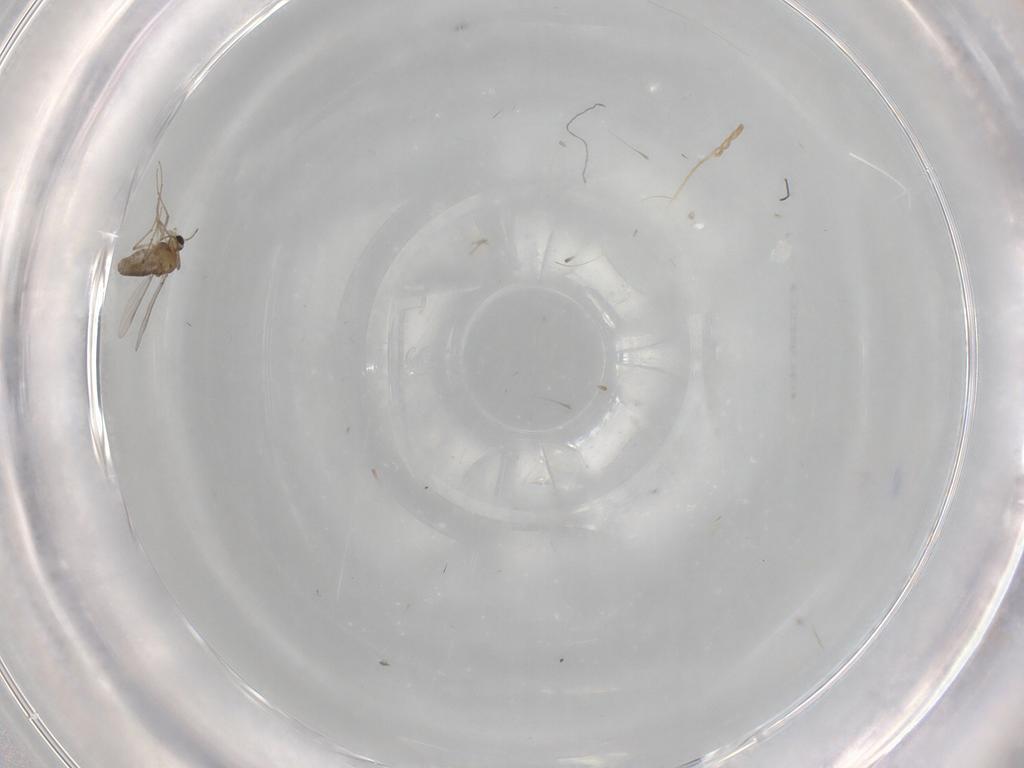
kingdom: Animalia
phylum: Arthropoda
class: Insecta
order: Diptera
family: Chironomidae
